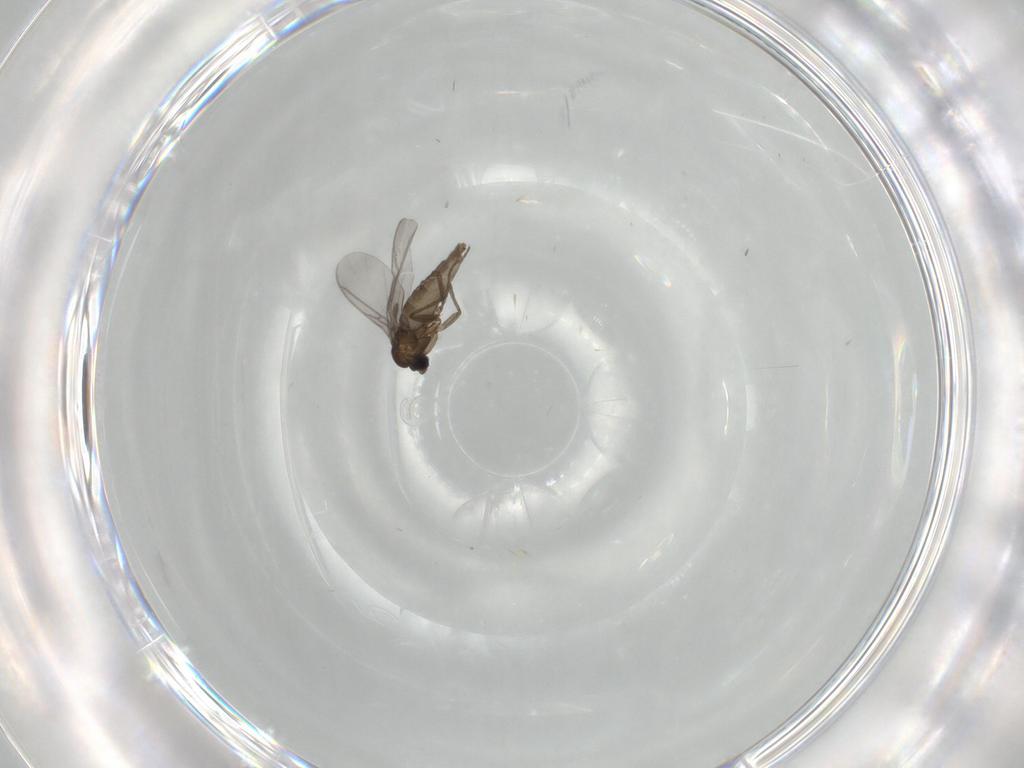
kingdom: Animalia
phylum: Arthropoda
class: Insecta
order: Diptera
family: Sciaridae
